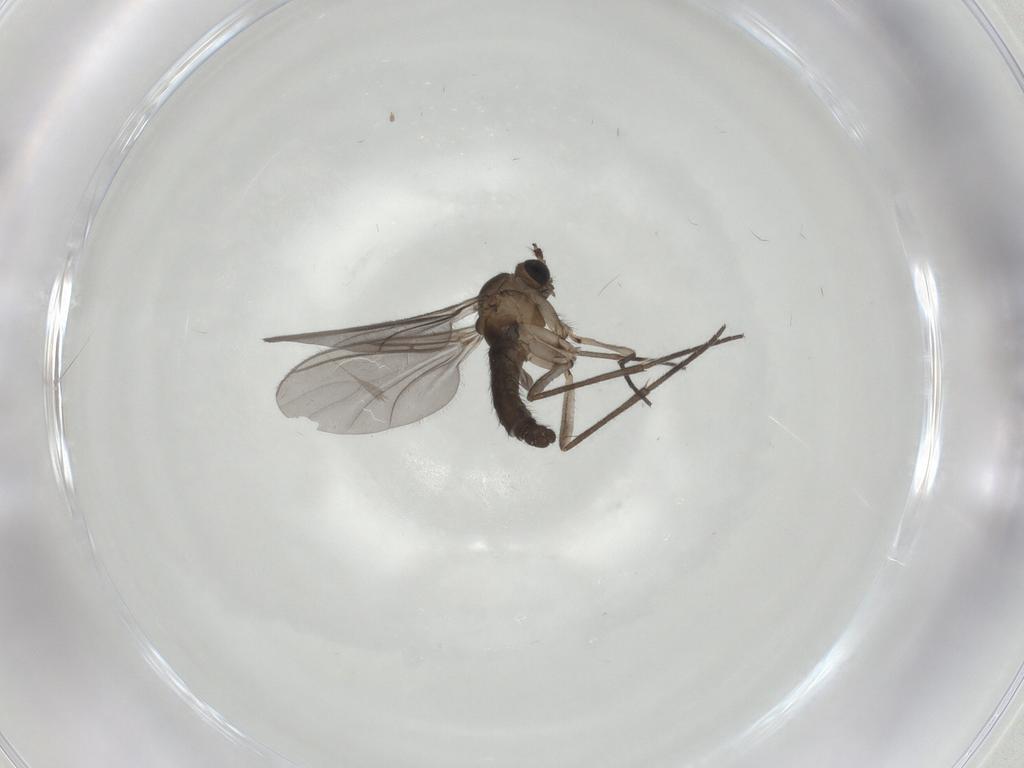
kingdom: Animalia
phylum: Arthropoda
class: Insecta
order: Diptera
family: Sciaridae
